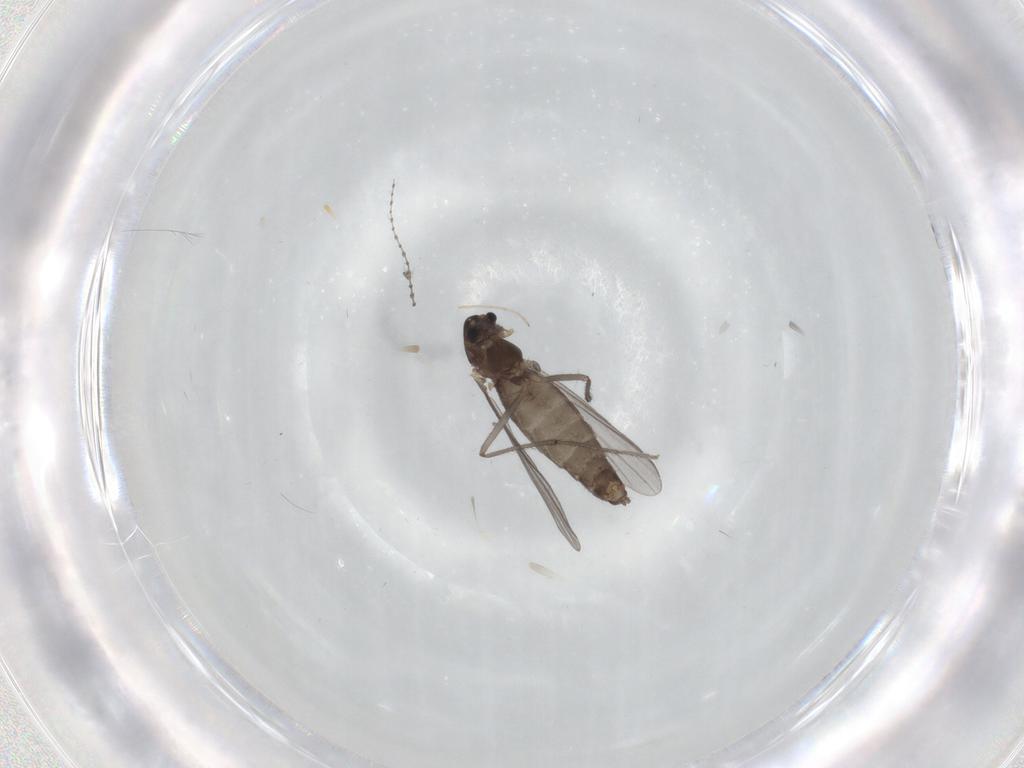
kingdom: Animalia
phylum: Arthropoda
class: Insecta
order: Diptera
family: Chironomidae
